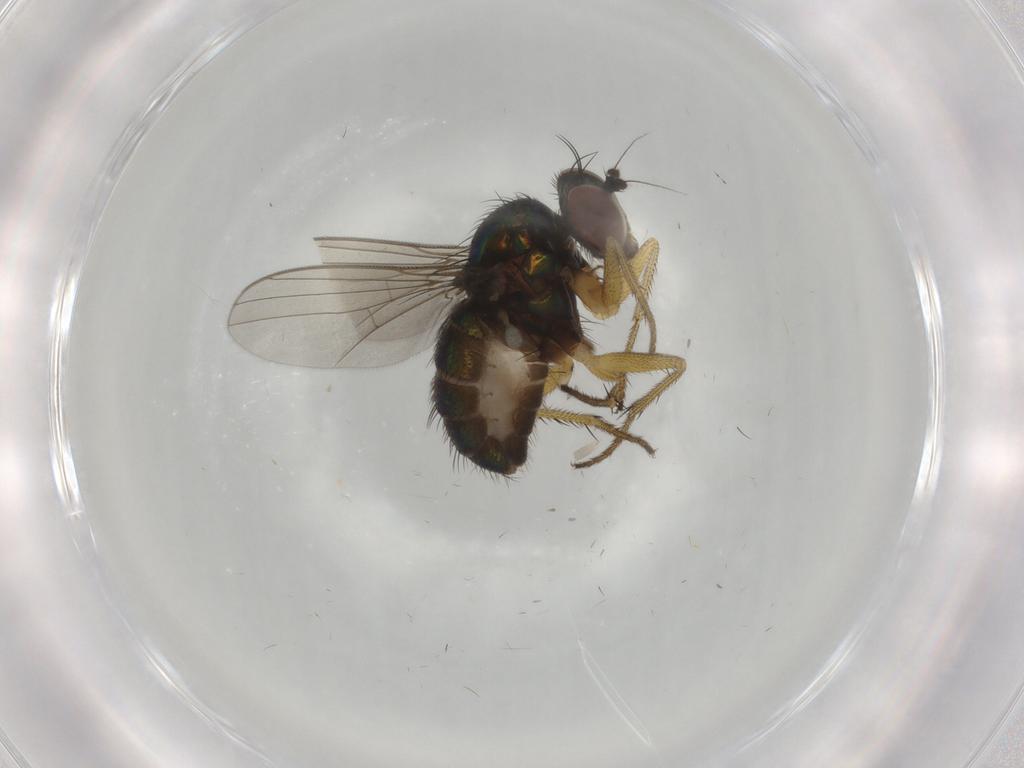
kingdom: Animalia
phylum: Arthropoda
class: Insecta
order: Diptera
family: Dolichopodidae
